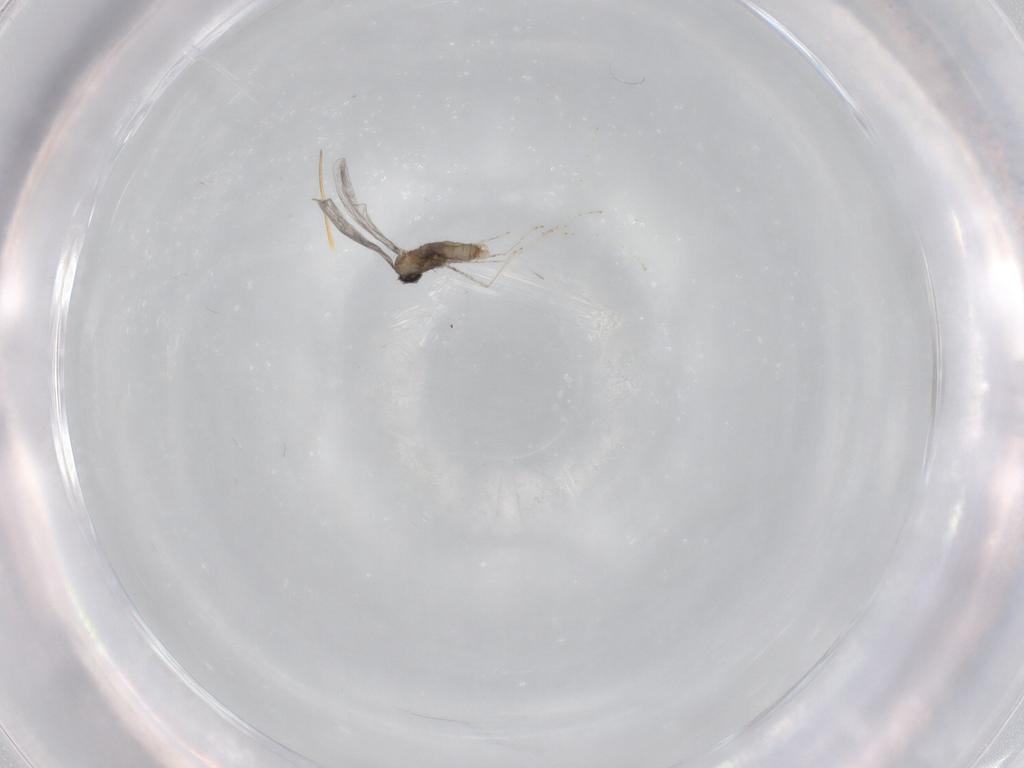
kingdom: Animalia
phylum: Arthropoda
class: Insecta
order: Diptera
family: Cecidomyiidae
